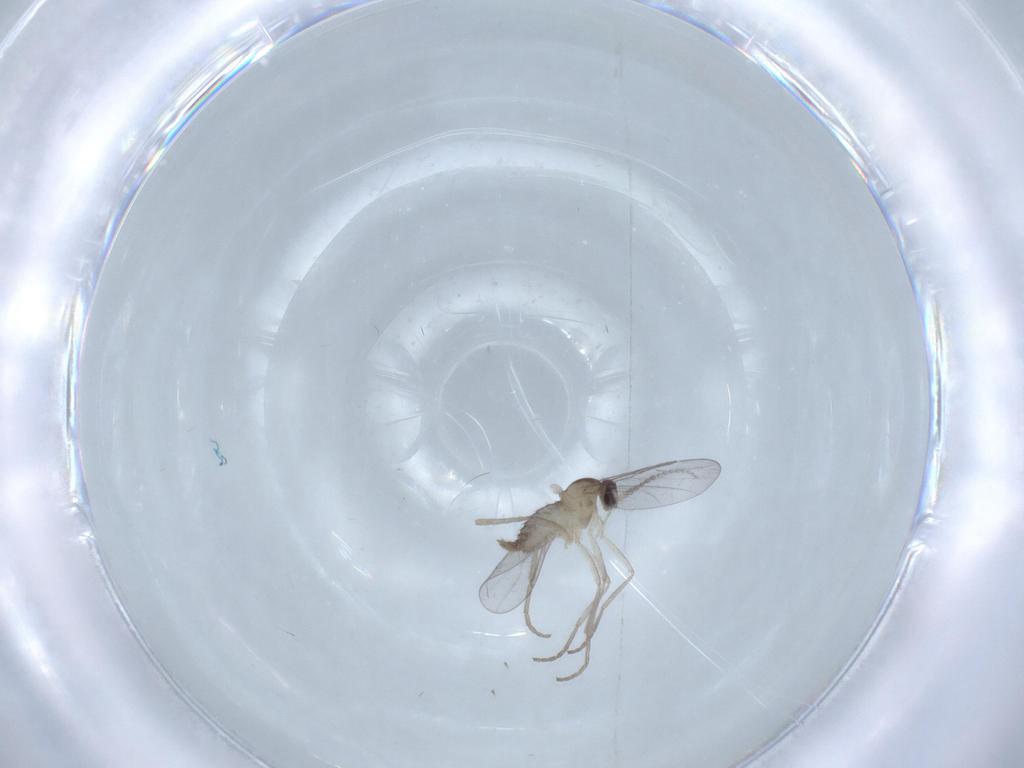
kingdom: Animalia
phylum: Arthropoda
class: Insecta
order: Diptera
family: Cecidomyiidae
